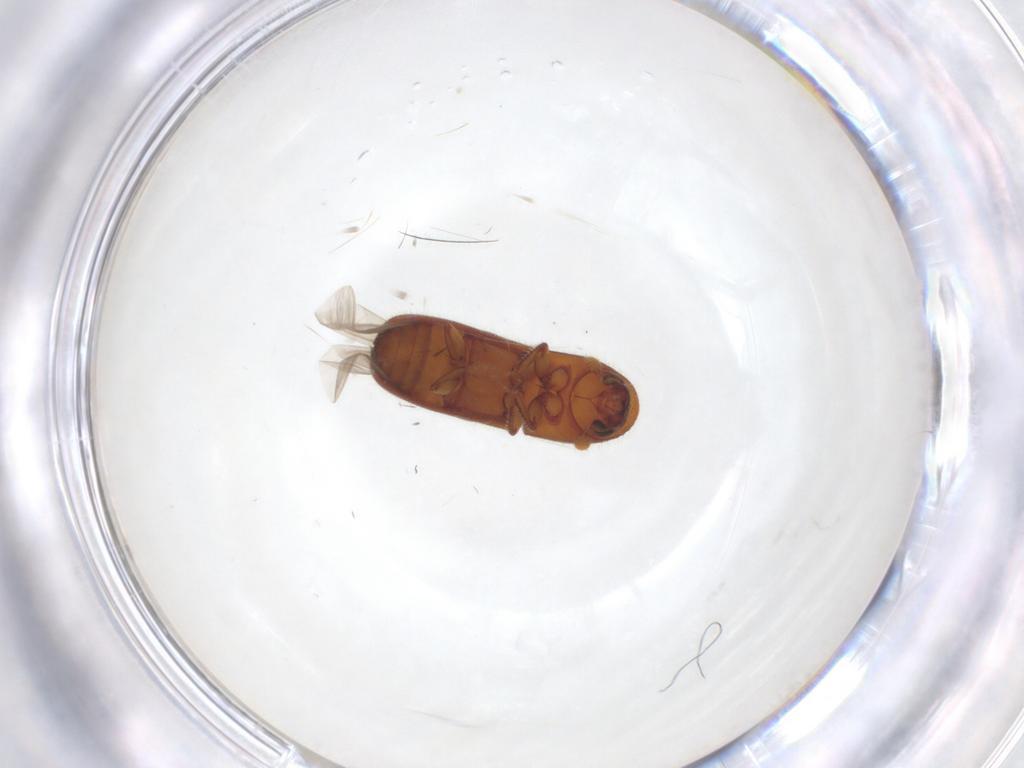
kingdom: Animalia
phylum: Arthropoda
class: Insecta
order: Coleoptera
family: Curculionidae
